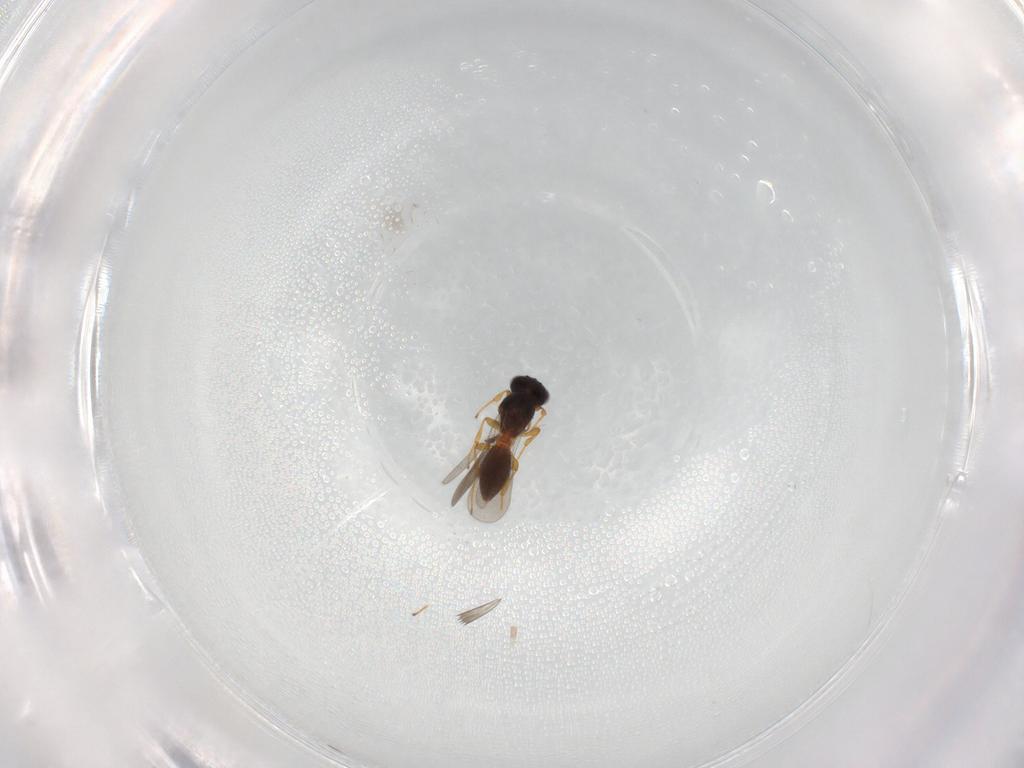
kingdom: Animalia
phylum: Arthropoda
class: Insecta
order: Hymenoptera
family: Platygastridae
